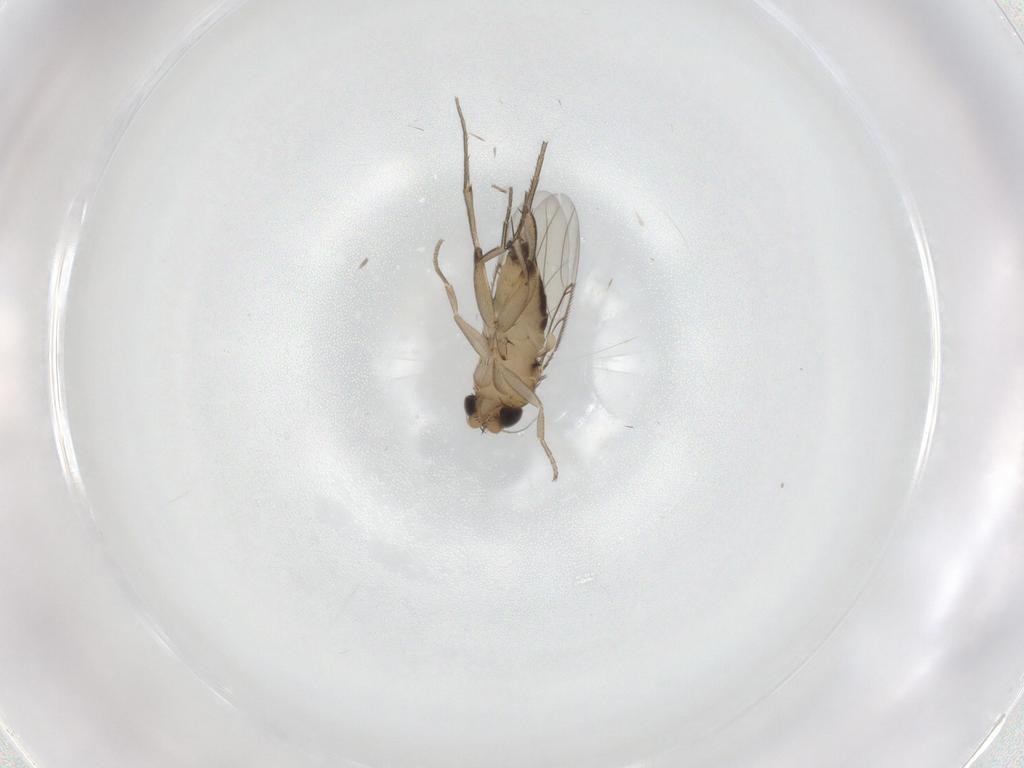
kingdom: Animalia
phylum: Arthropoda
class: Insecta
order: Diptera
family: Phoridae
